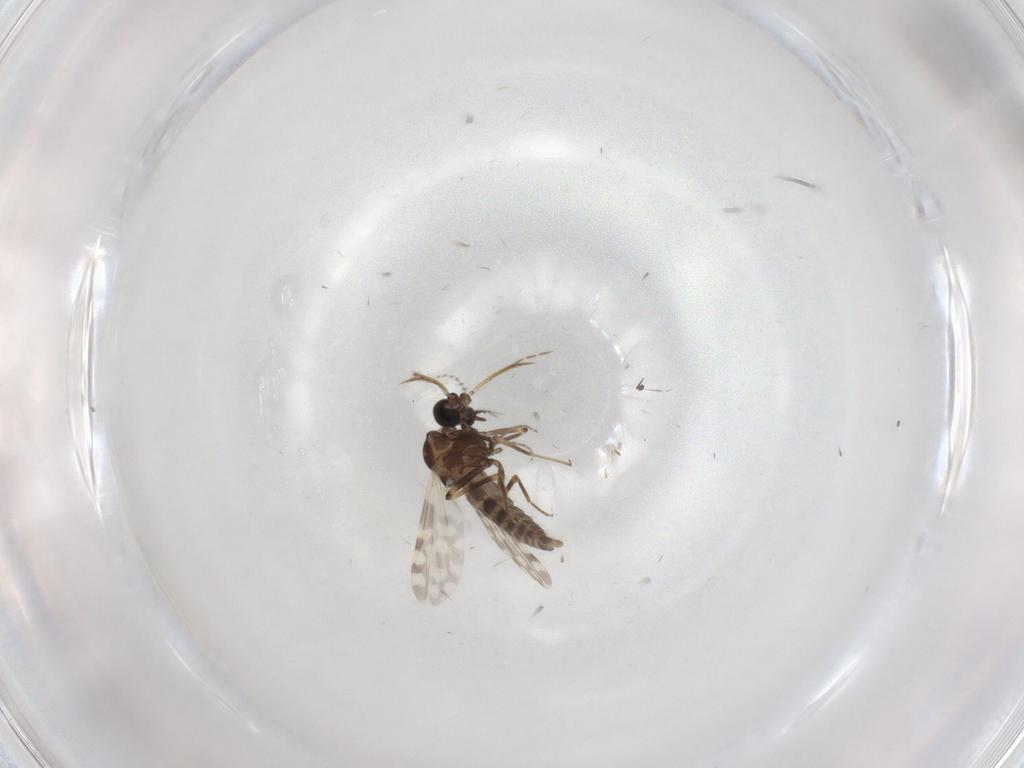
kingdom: Animalia
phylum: Arthropoda
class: Insecta
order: Diptera
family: Ceratopogonidae
